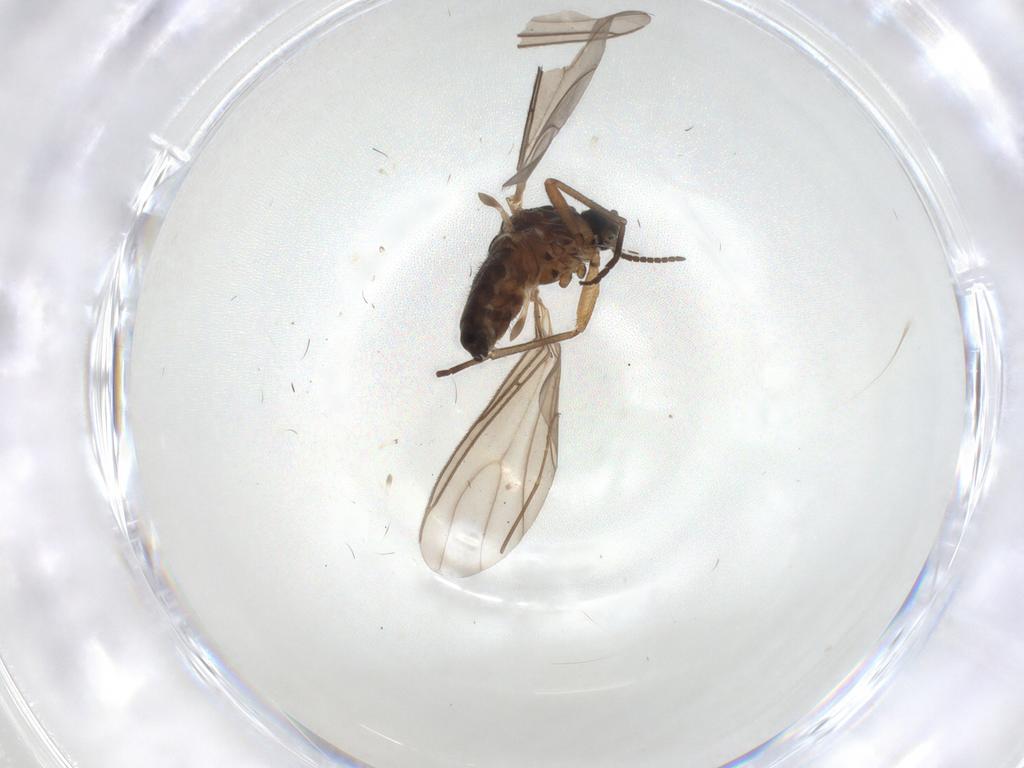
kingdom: Animalia
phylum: Arthropoda
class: Insecta
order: Diptera
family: Sciaridae
